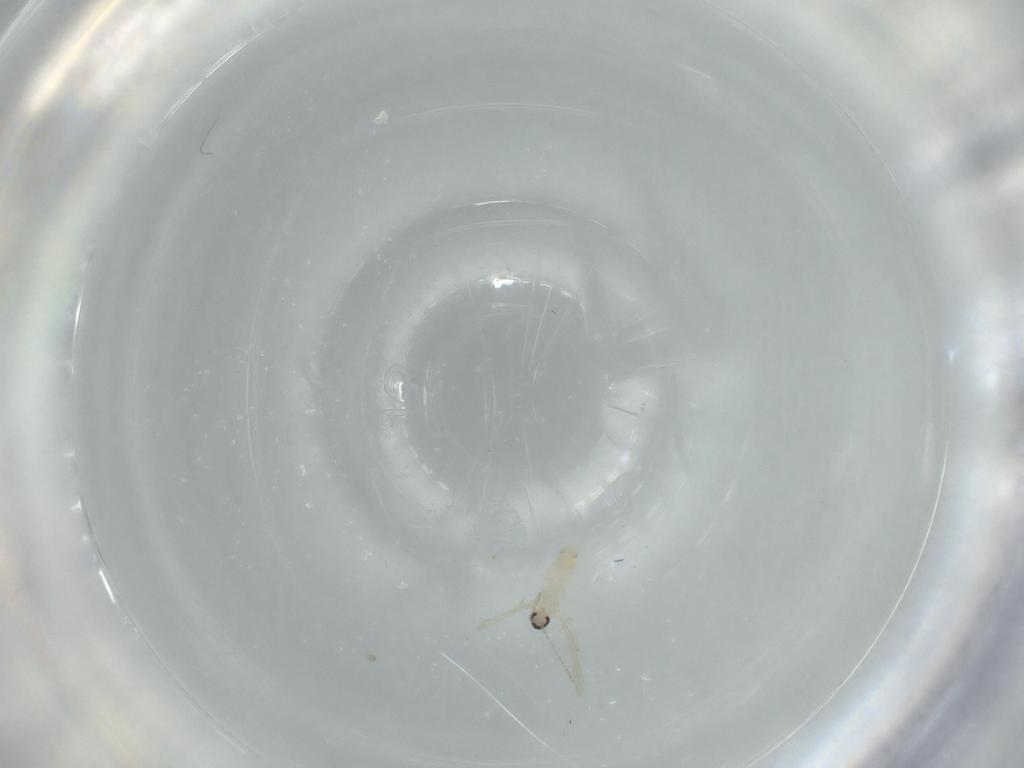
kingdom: Animalia
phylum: Arthropoda
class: Insecta
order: Diptera
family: Cecidomyiidae
